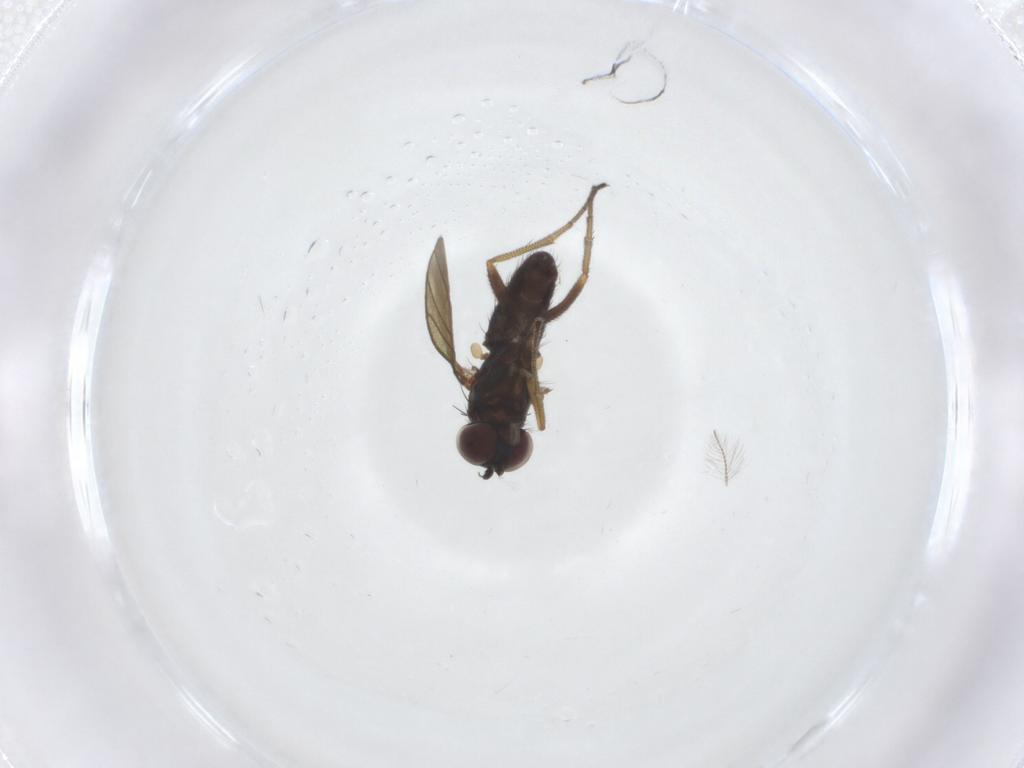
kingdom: Animalia
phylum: Arthropoda
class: Insecta
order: Diptera
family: Dolichopodidae
